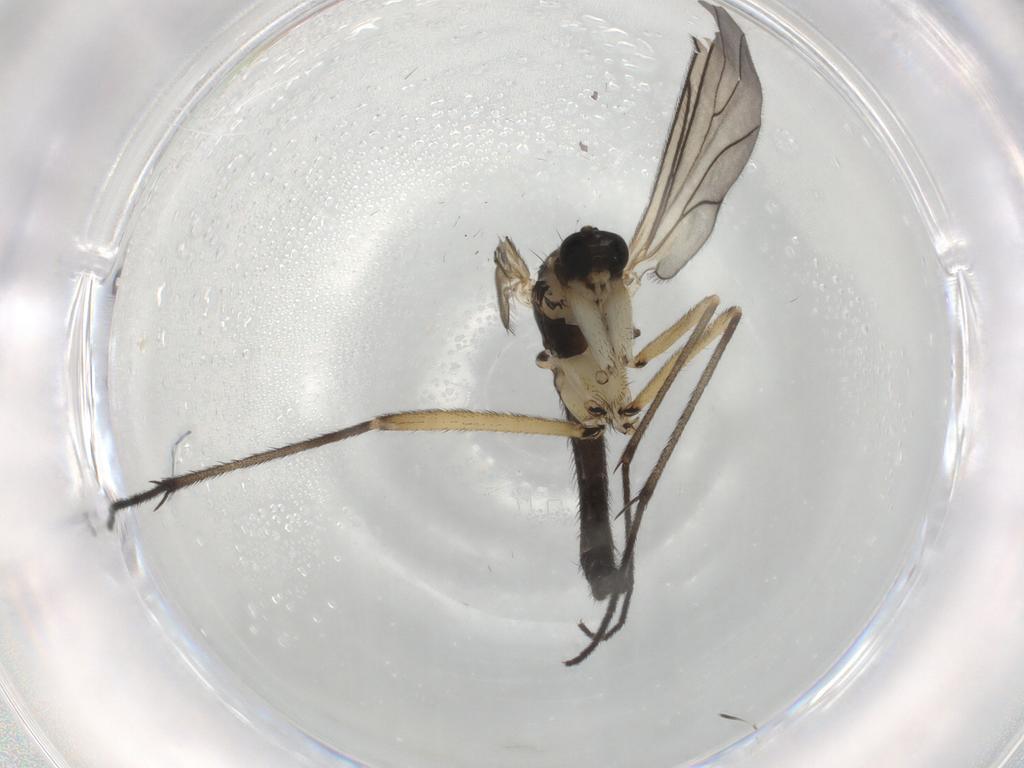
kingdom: Animalia
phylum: Arthropoda
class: Insecta
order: Diptera
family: Sciaridae
